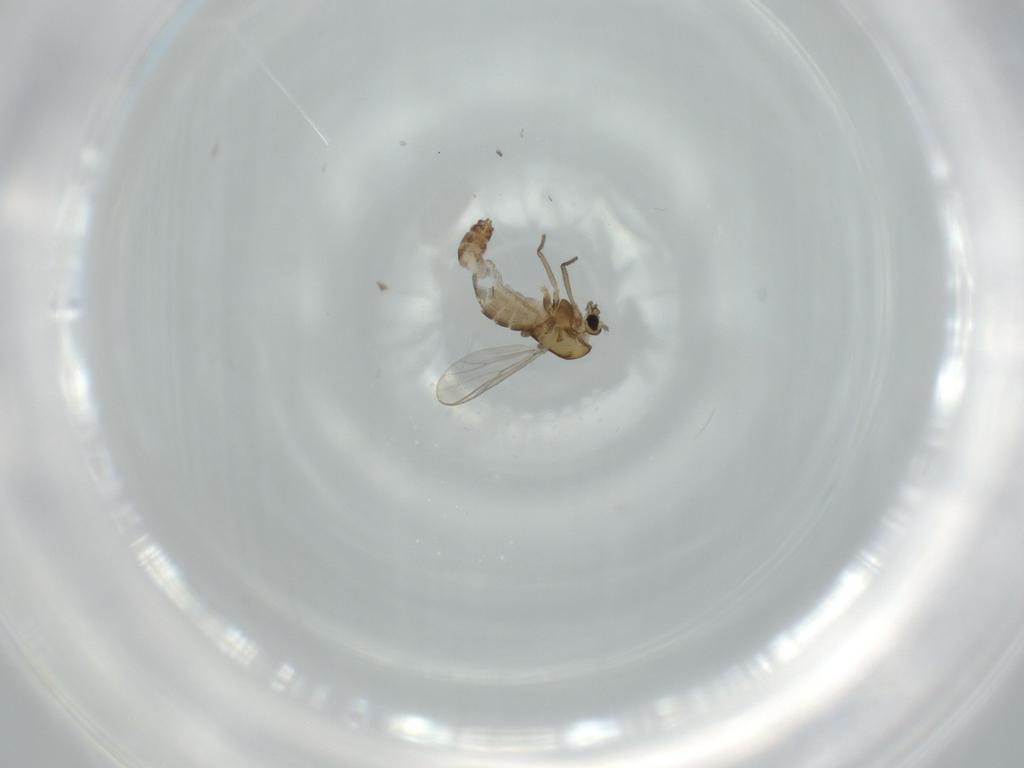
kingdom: Animalia
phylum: Arthropoda
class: Insecta
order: Diptera
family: Chironomidae
